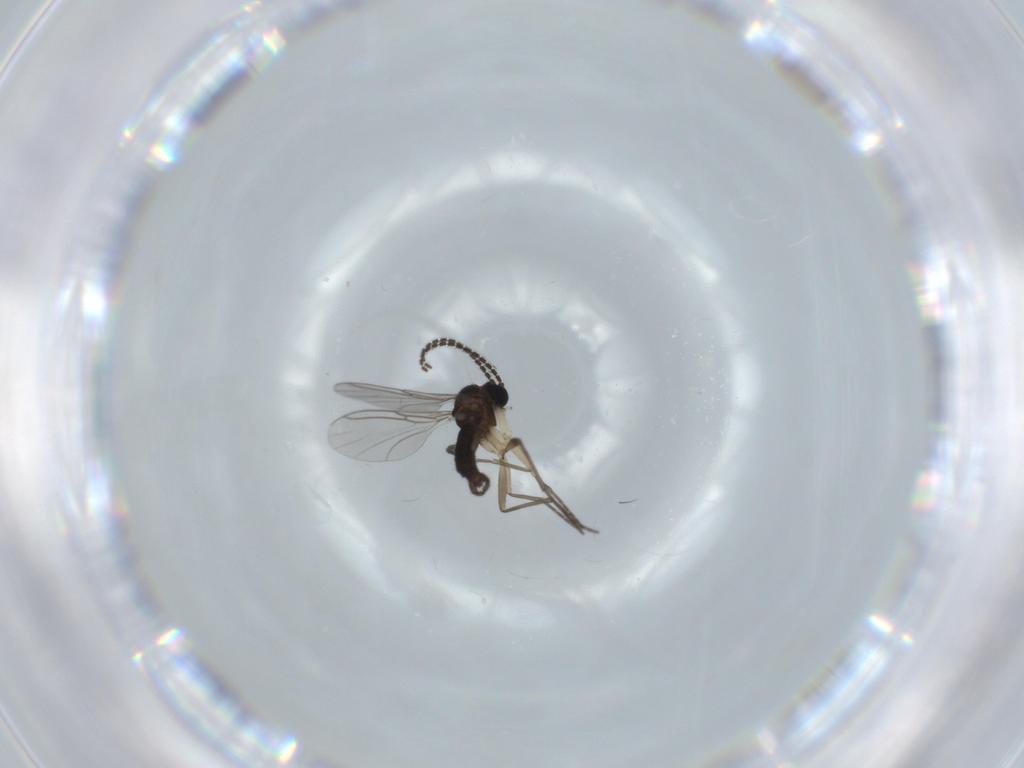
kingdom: Animalia
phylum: Arthropoda
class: Insecta
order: Diptera
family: Sciaridae
